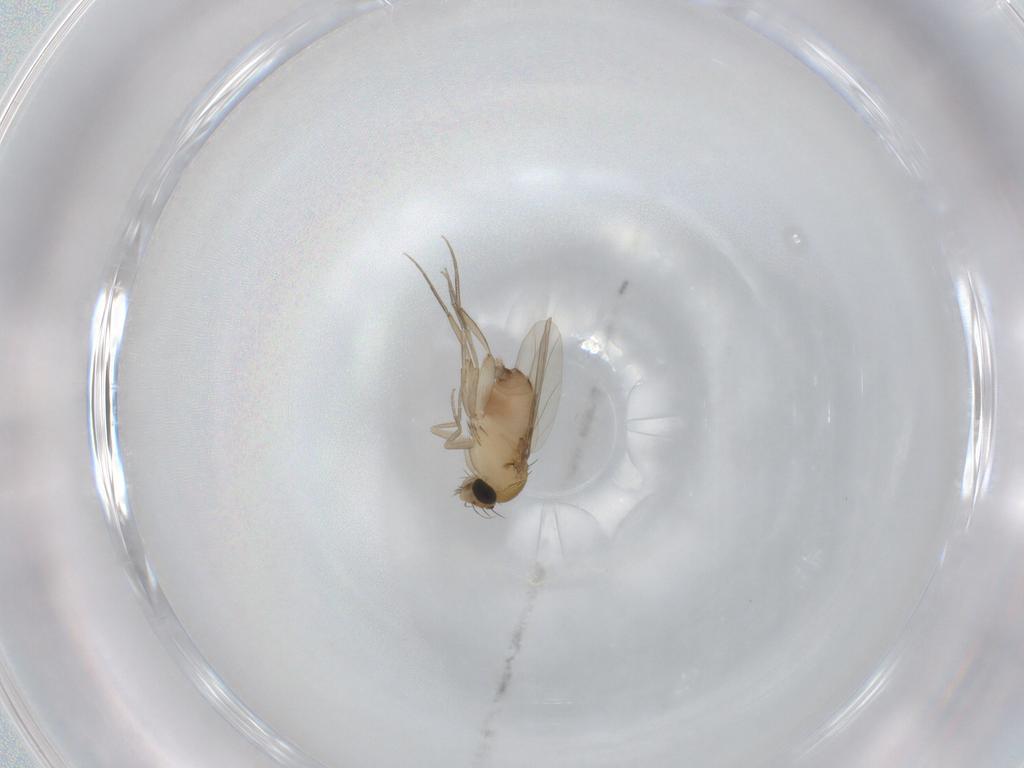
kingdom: Animalia
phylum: Arthropoda
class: Insecta
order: Diptera
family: Phoridae
